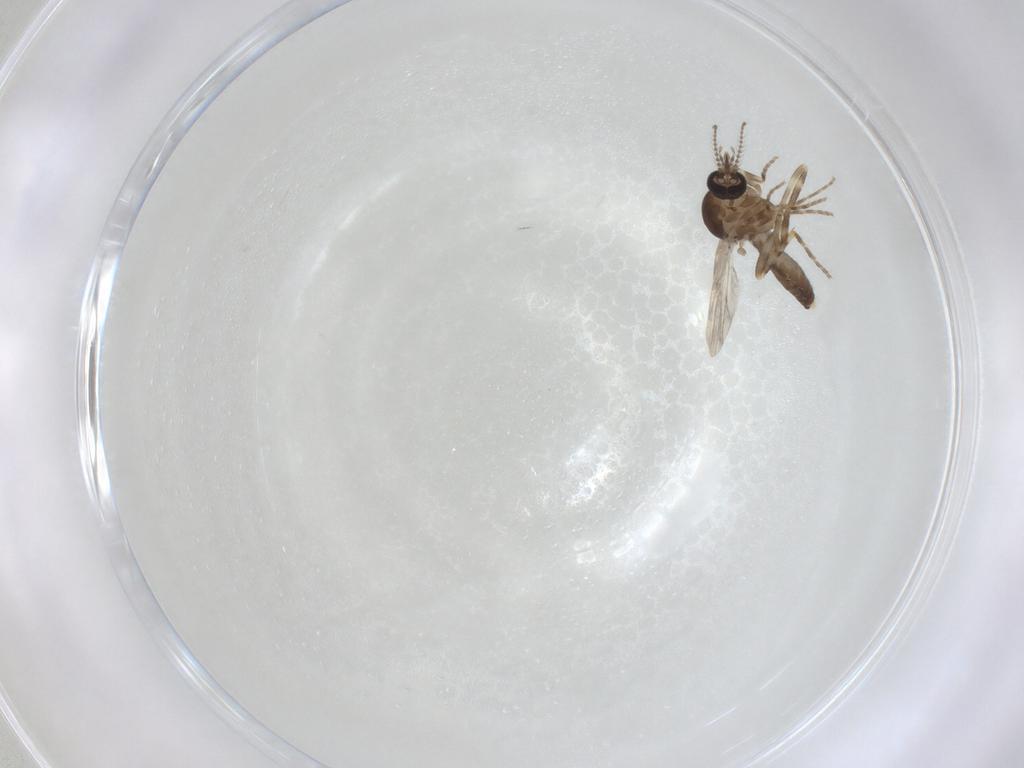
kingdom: Animalia
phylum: Arthropoda
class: Insecta
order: Diptera
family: Ceratopogonidae
